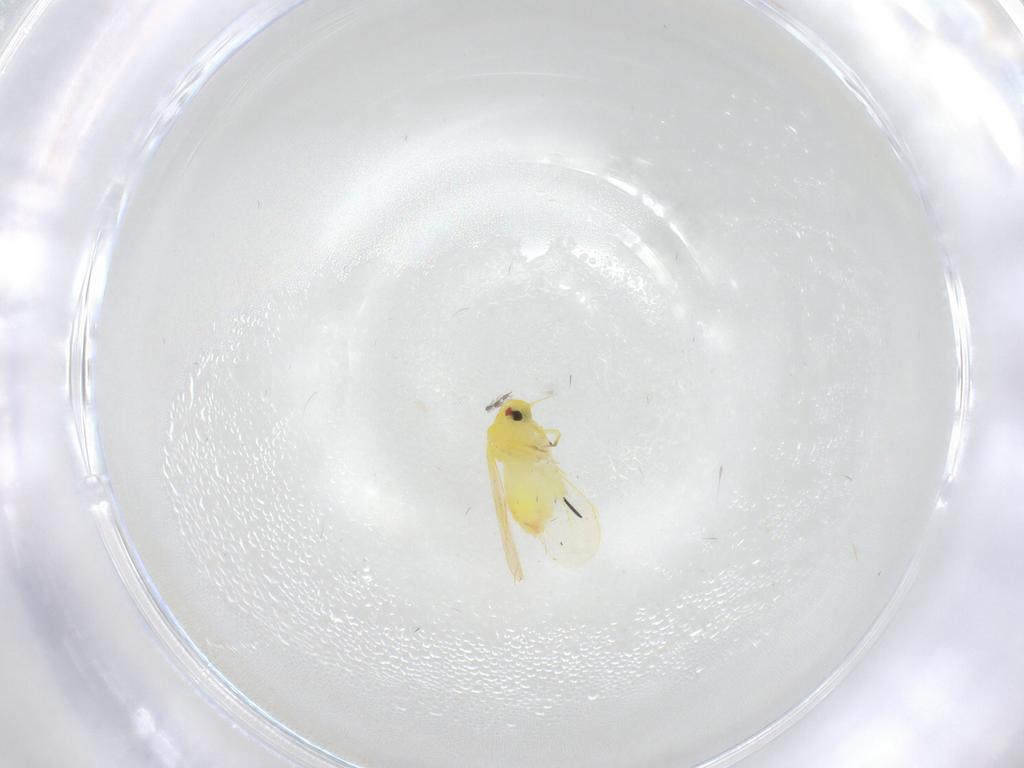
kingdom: Animalia
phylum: Arthropoda
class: Insecta
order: Hemiptera
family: Aleyrodidae
